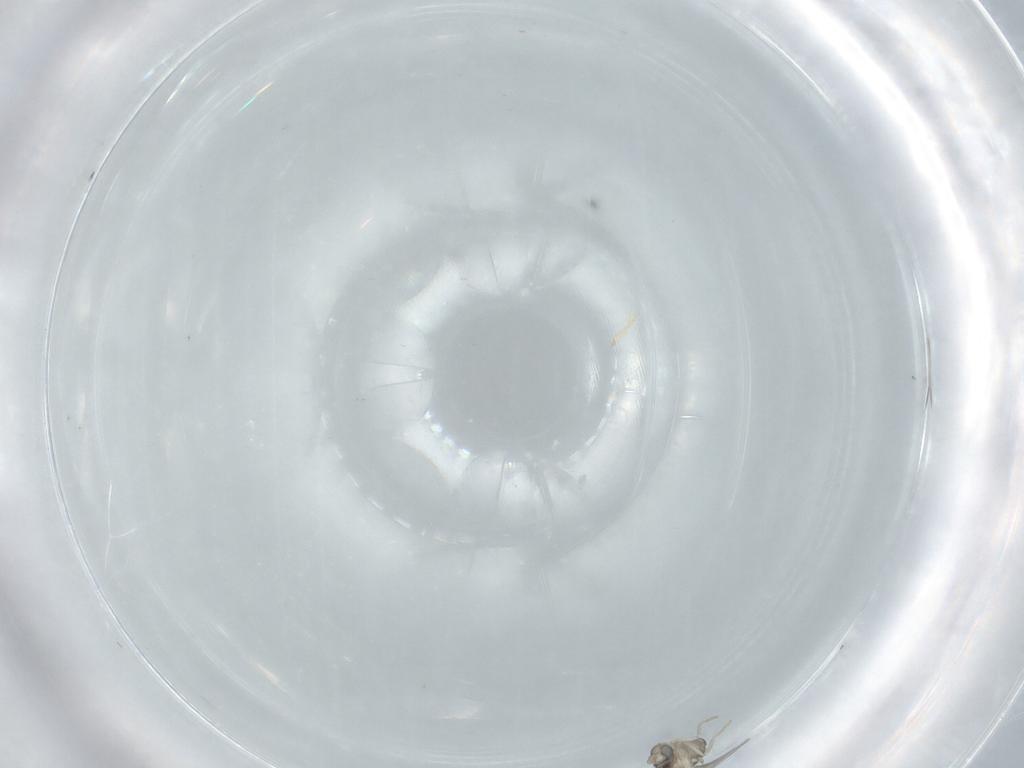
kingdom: Animalia
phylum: Arthropoda
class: Insecta
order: Diptera
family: Cecidomyiidae
